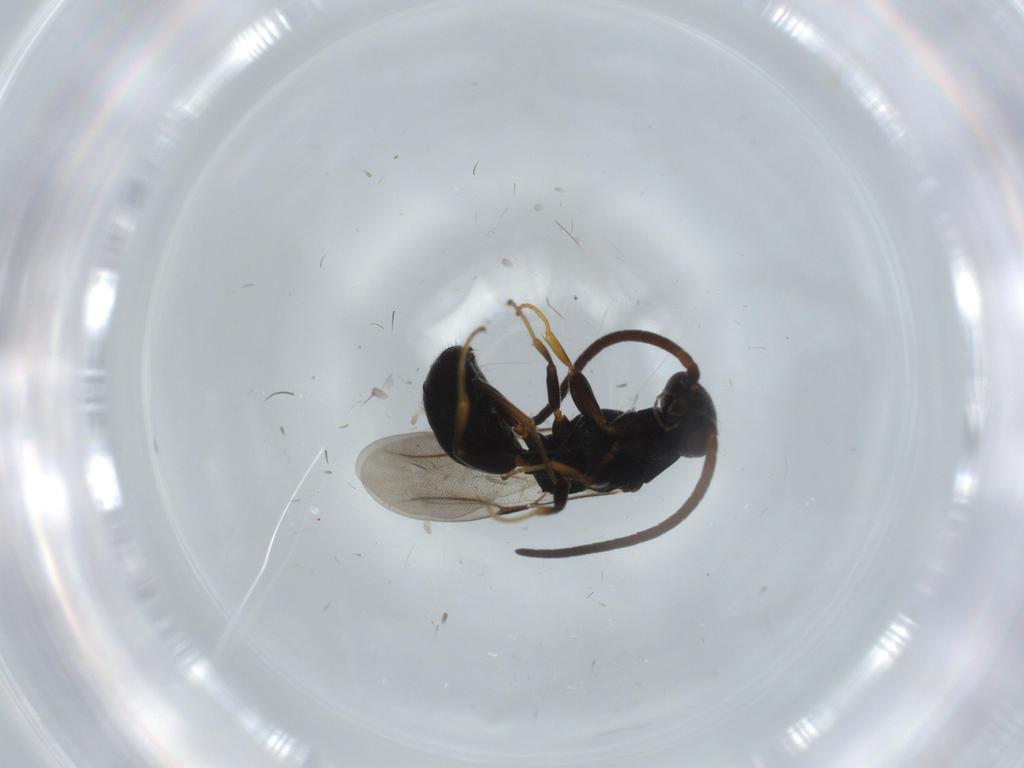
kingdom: Animalia
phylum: Arthropoda
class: Insecta
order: Hymenoptera
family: Bethylidae
